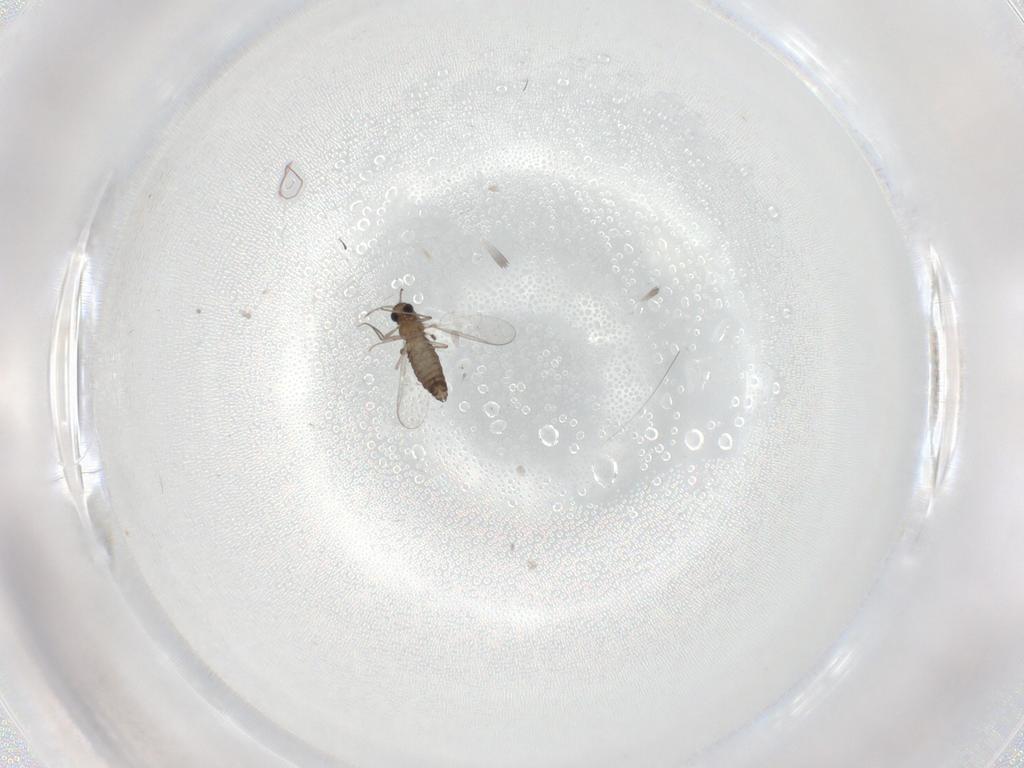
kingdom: Animalia
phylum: Arthropoda
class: Insecta
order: Diptera
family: Chironomidae
